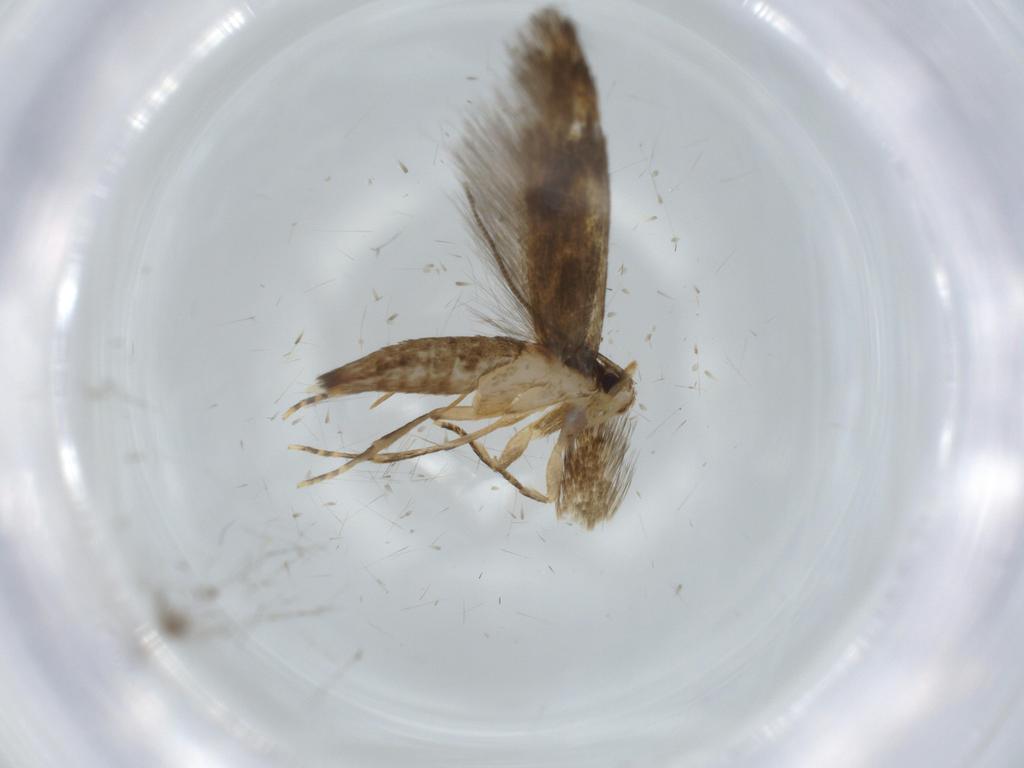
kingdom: Animalia
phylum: Arthropoda
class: Insecta
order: Lepidoptera
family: Tineidae
